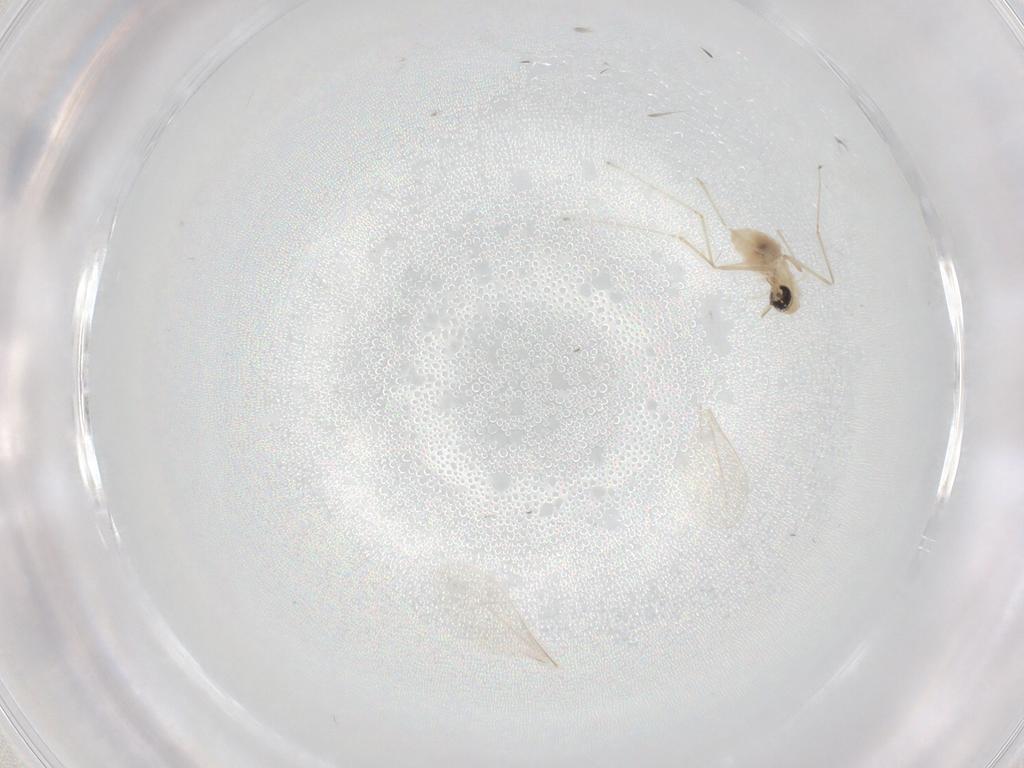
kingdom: Animalia
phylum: Arthropoda
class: Insecta
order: Diptera
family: Cecidomyiidae
